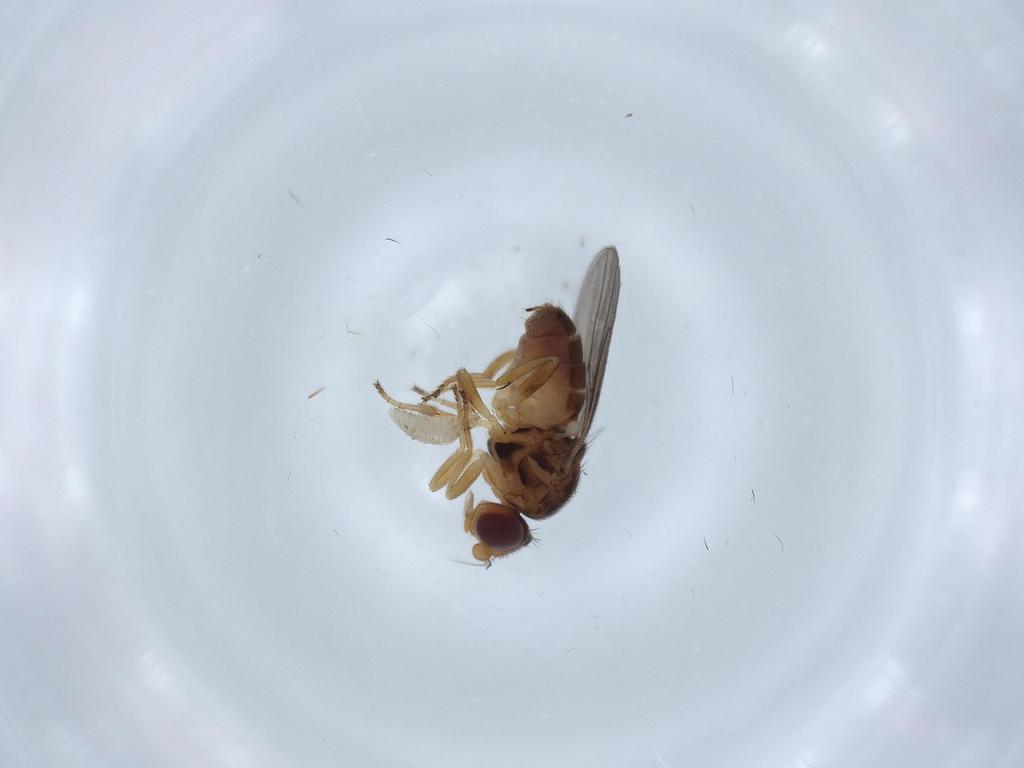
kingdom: Animalia
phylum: Arthropoda
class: Insecta
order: Diptera
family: Chloropidae
